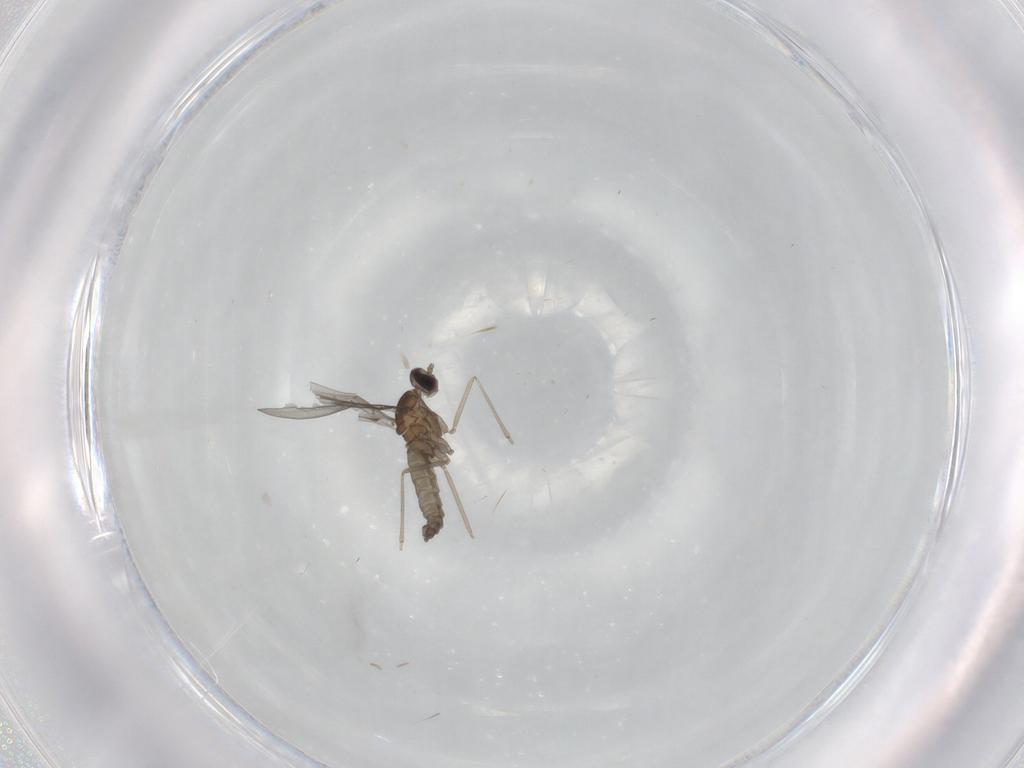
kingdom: Animalia
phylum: Arthropoda
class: Insecta
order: Diptera
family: Cecidomyiidae
